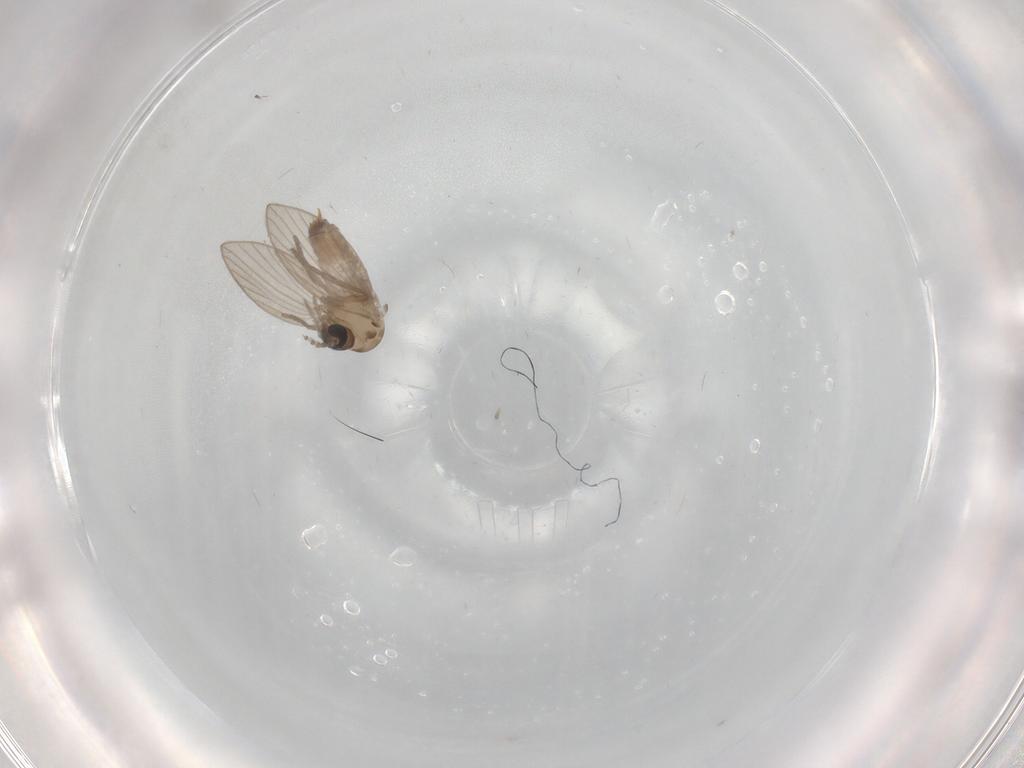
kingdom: Animalia
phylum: Arthropoda
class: Insecta
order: Diptera
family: Psychodidae
